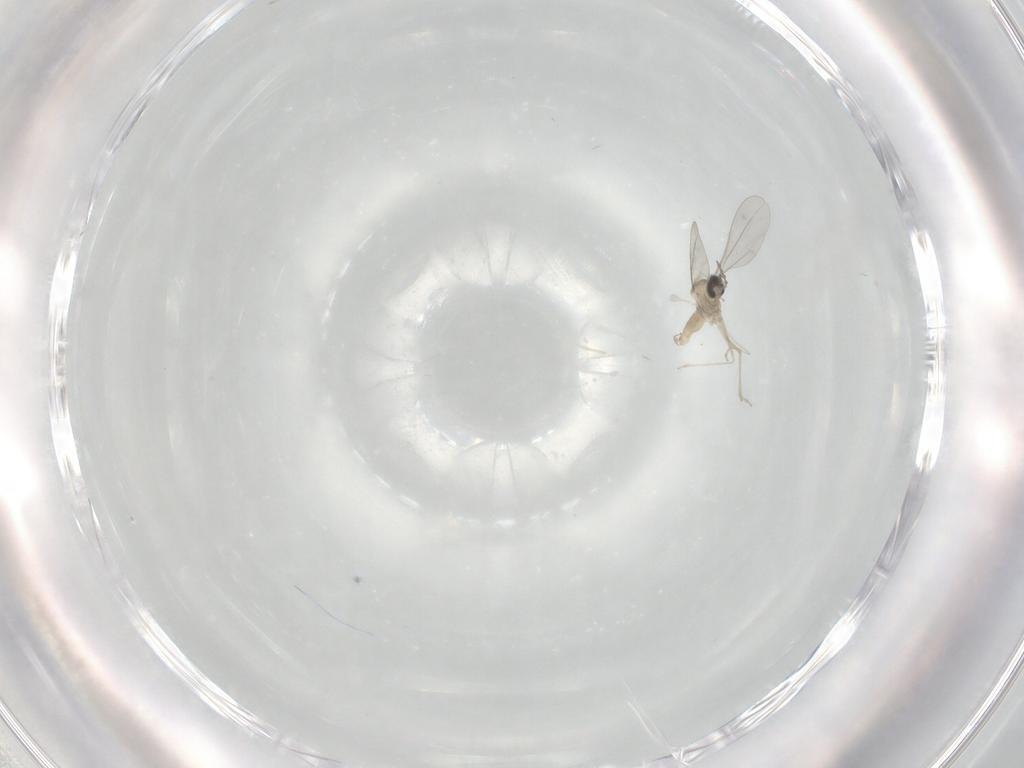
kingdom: Animalia
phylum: Arthropoda
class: Insecta
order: Diptera
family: Cecidomyiidae
